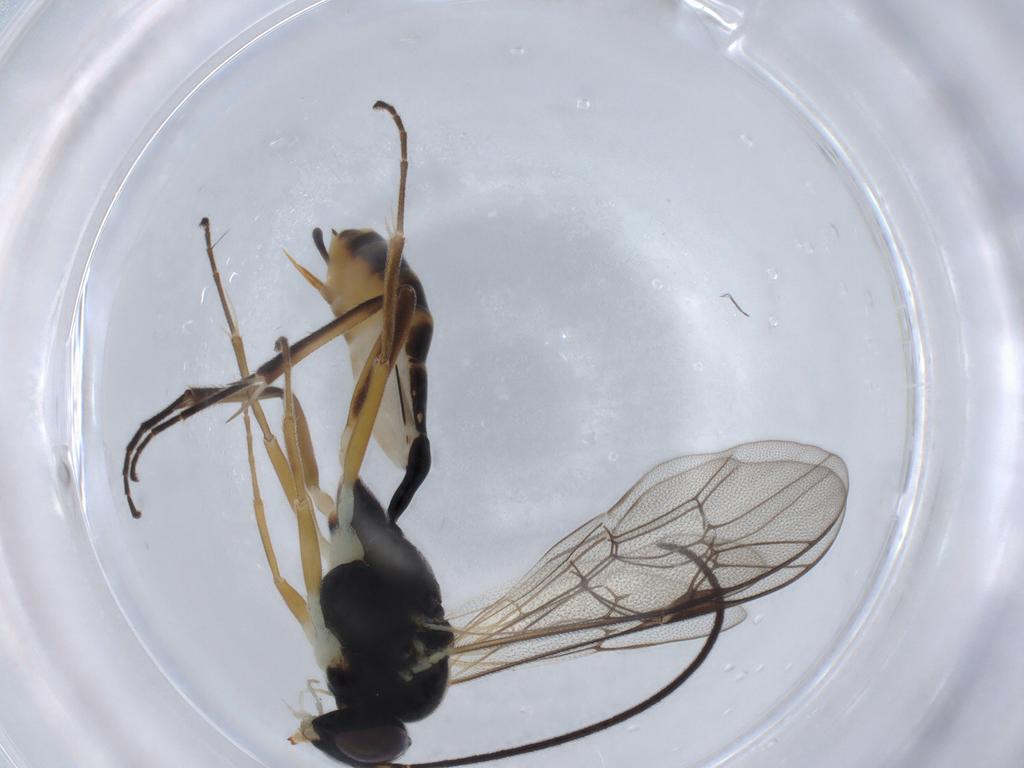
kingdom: Animalia
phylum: Arthropoda
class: Insecta
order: Hymenoptera
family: Ichneumonidae
